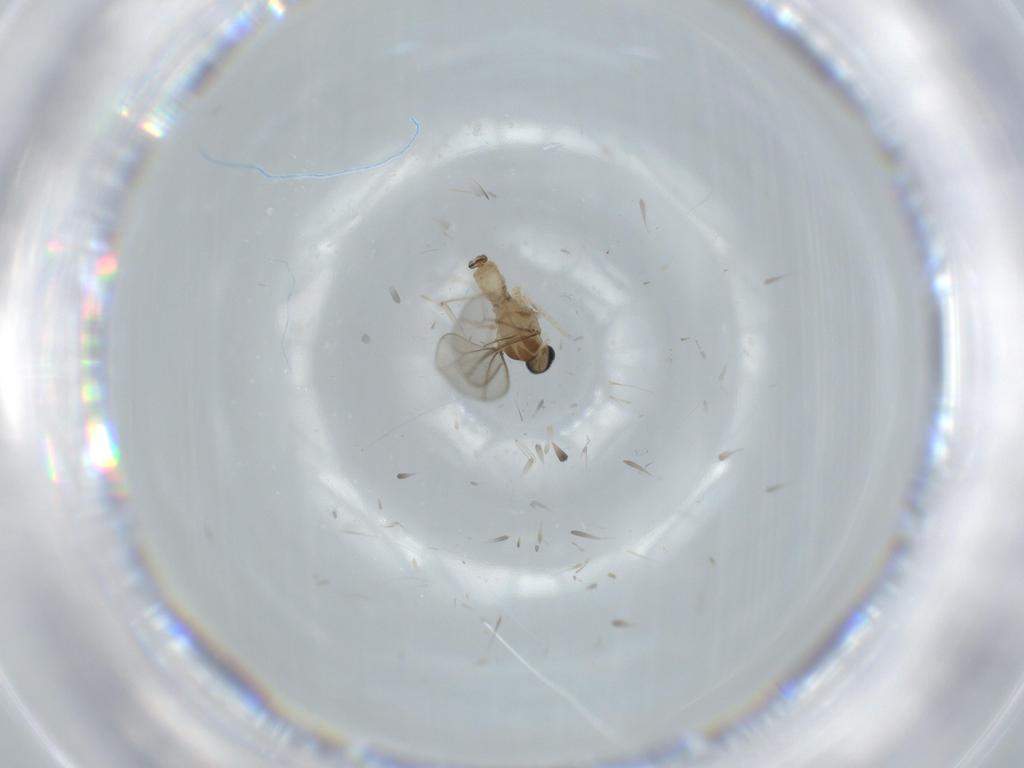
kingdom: Animalia
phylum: Arthropoda
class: Insecta
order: Diptera
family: Cecidomyiidae
